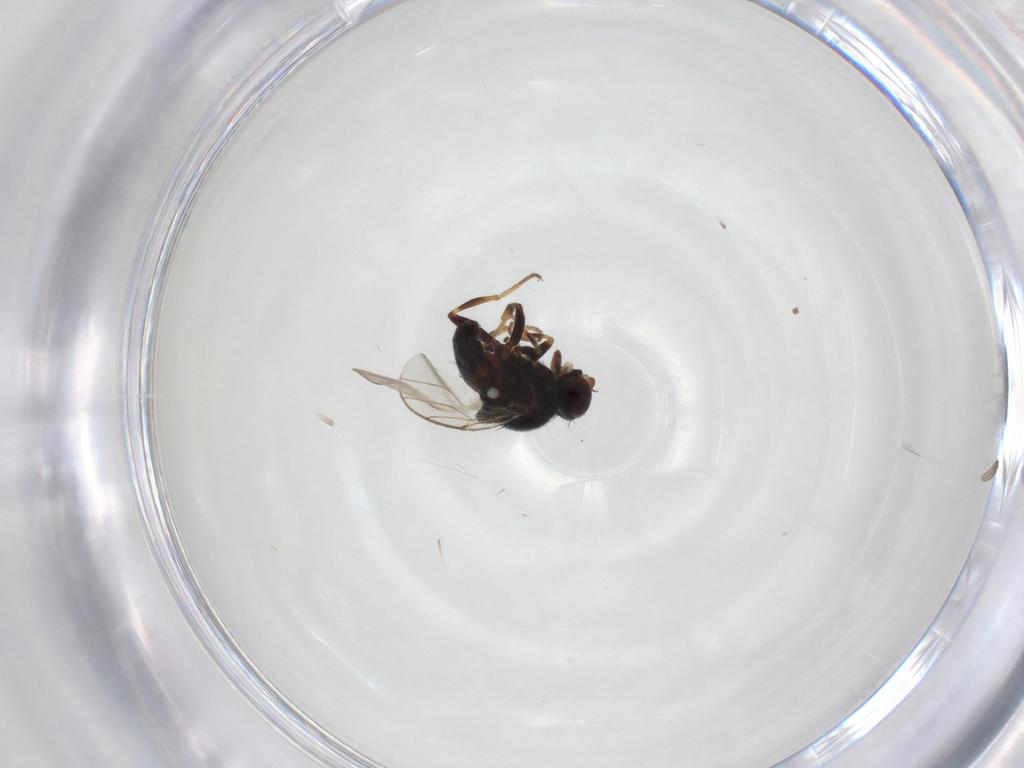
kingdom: Animalia
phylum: Arthropoda
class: Insecta
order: Diptera
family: Chloropidae
